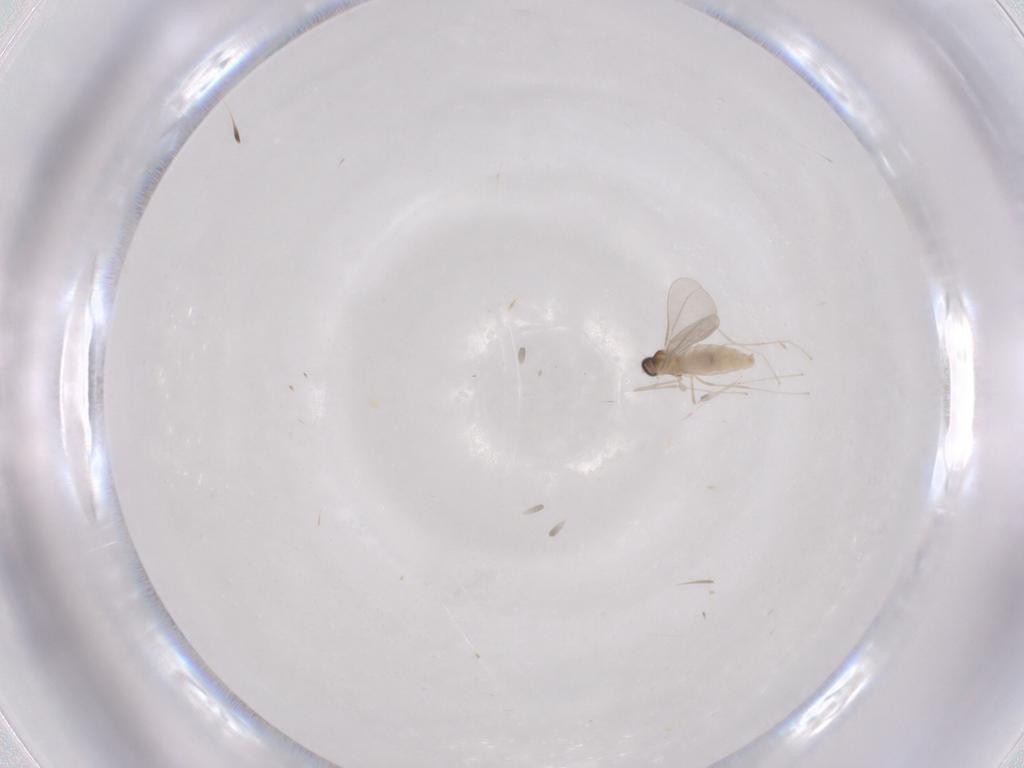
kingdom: Animalia
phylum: Arthropoda
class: Insecta
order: Diptera
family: Cecidomyiidae
